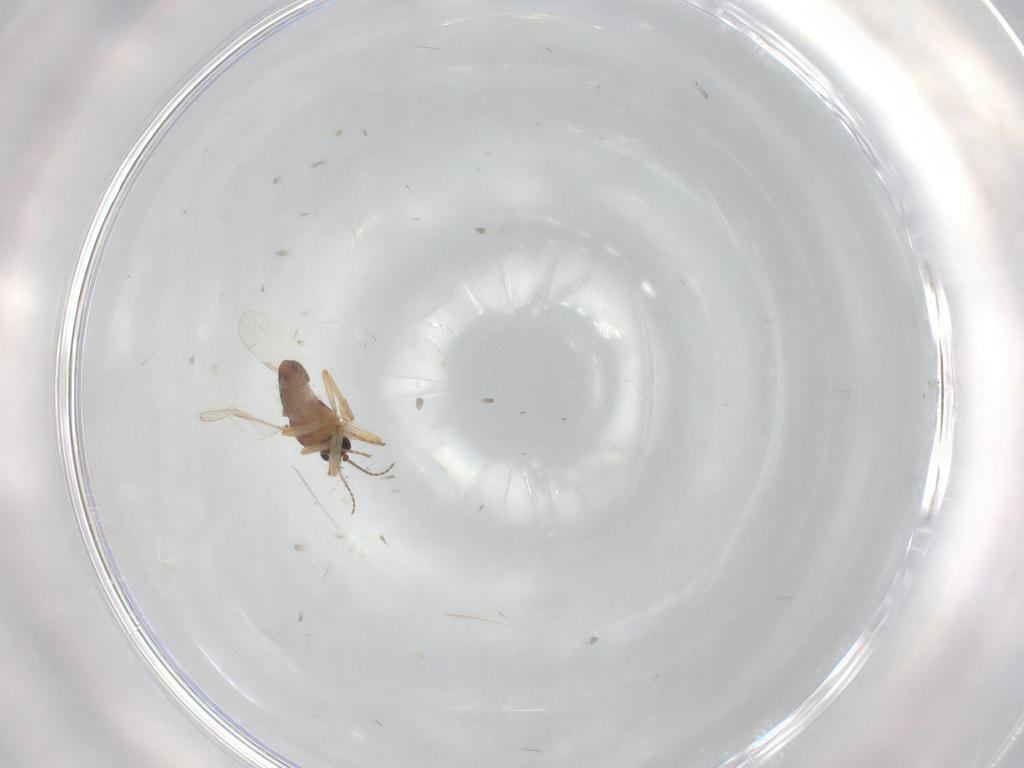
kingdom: Animalia
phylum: Arthropoda
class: Insecta
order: Diptera
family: Ceratopogonidae
